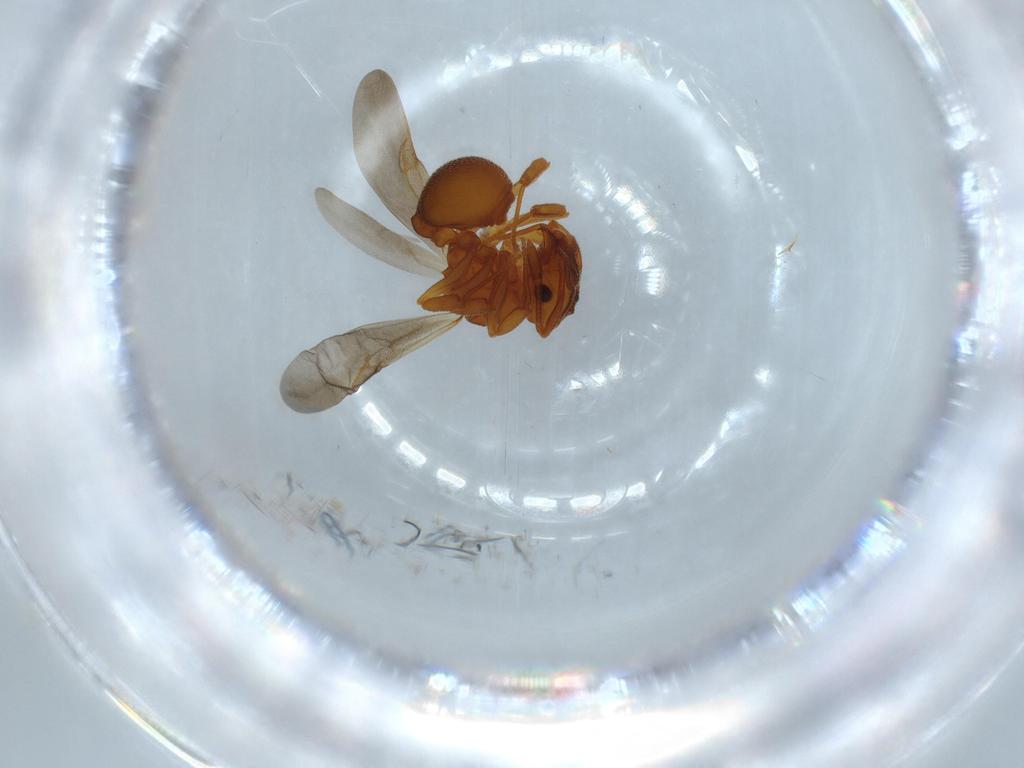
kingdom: Animalia
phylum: Arthropoda
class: Insecta
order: Hymenoptera
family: Formicidae
